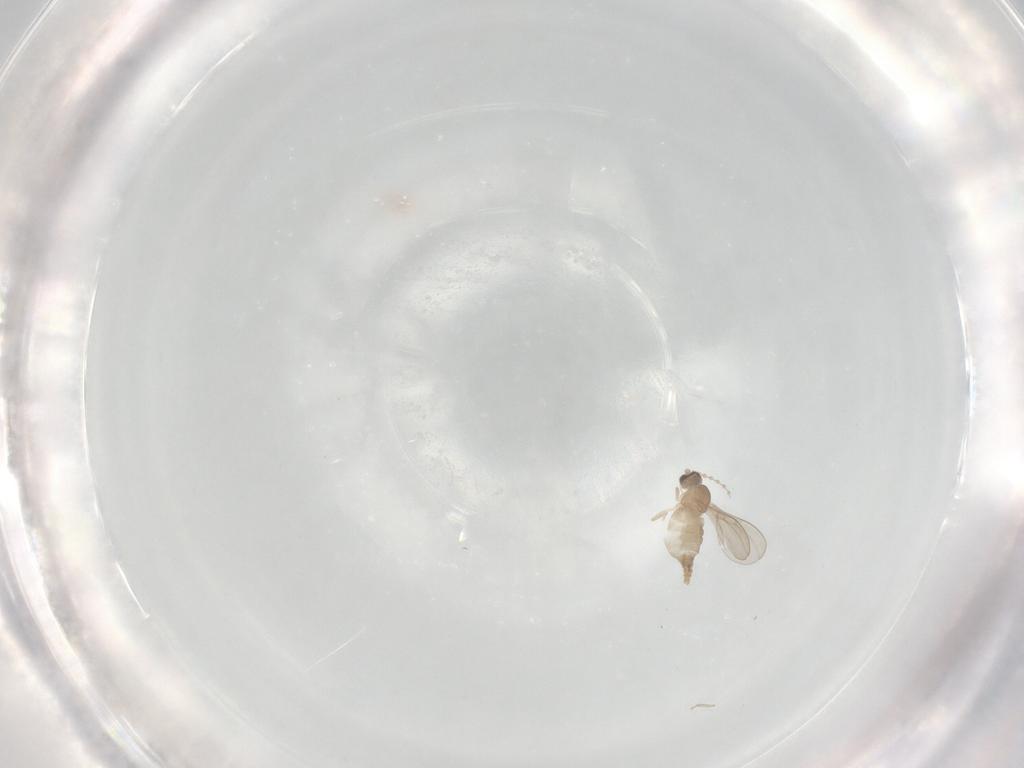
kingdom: Animalia
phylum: Arthropoda
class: Insecta
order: Diptera
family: Cecidomyiidae
